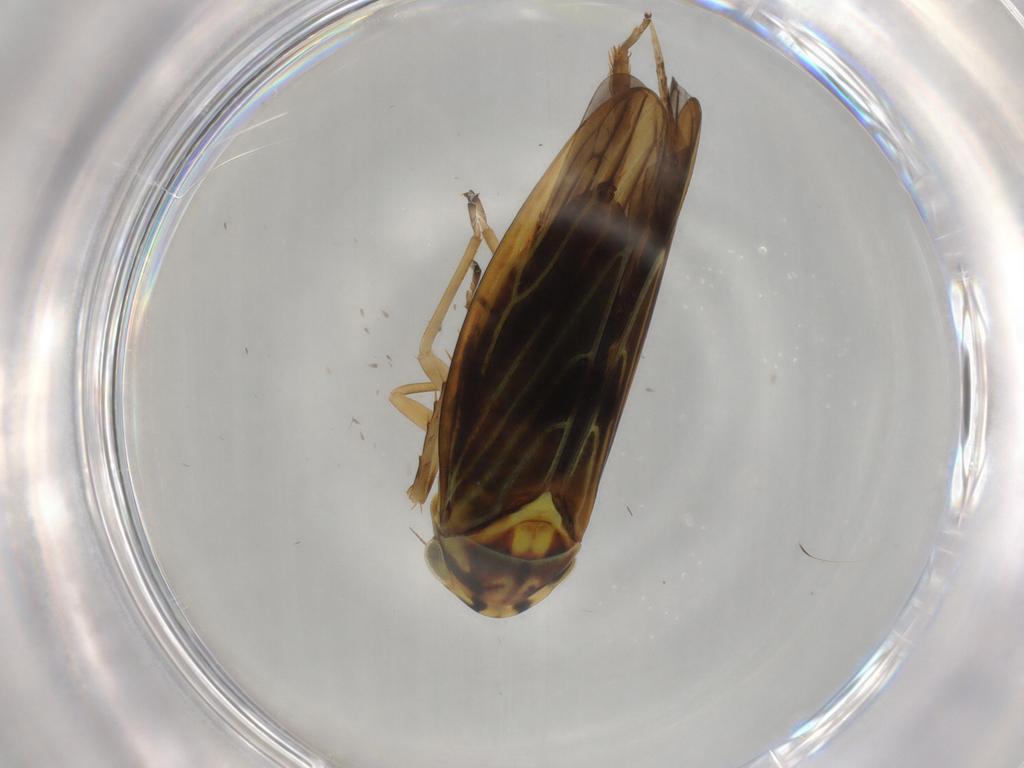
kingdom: Animalia
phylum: Arthropoda
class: Insecta
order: Hemiptera
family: Cicadellidae
